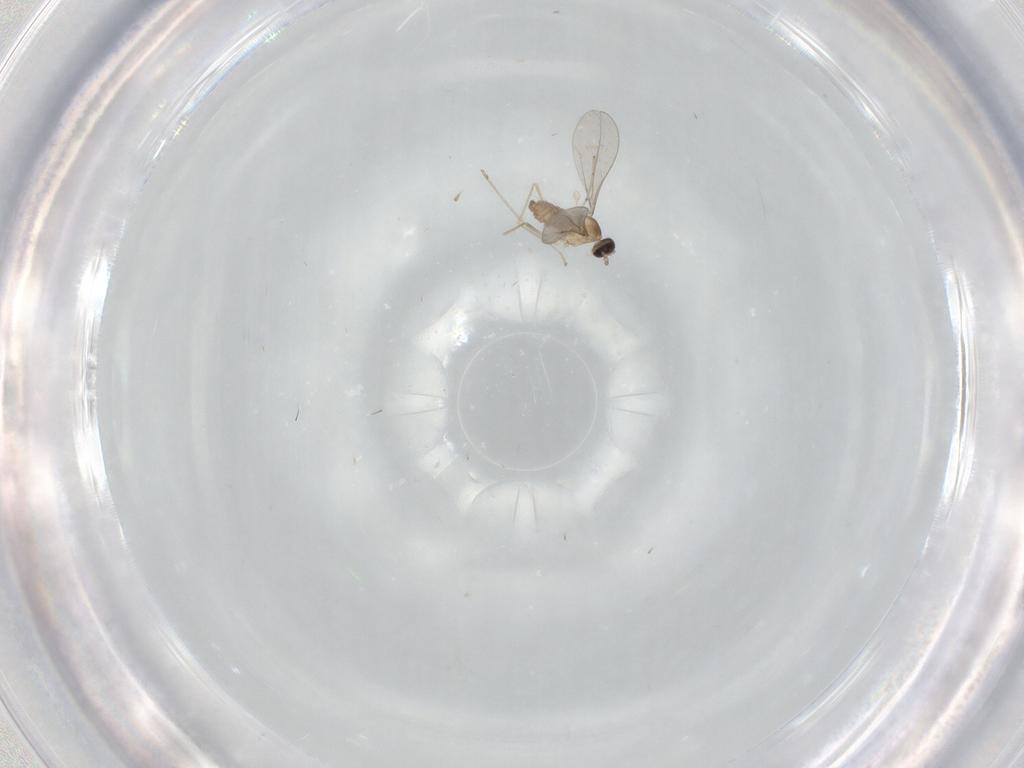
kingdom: Animalia
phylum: Arthropoda
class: Insecta
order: Diptera
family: Cecidomyiidae
